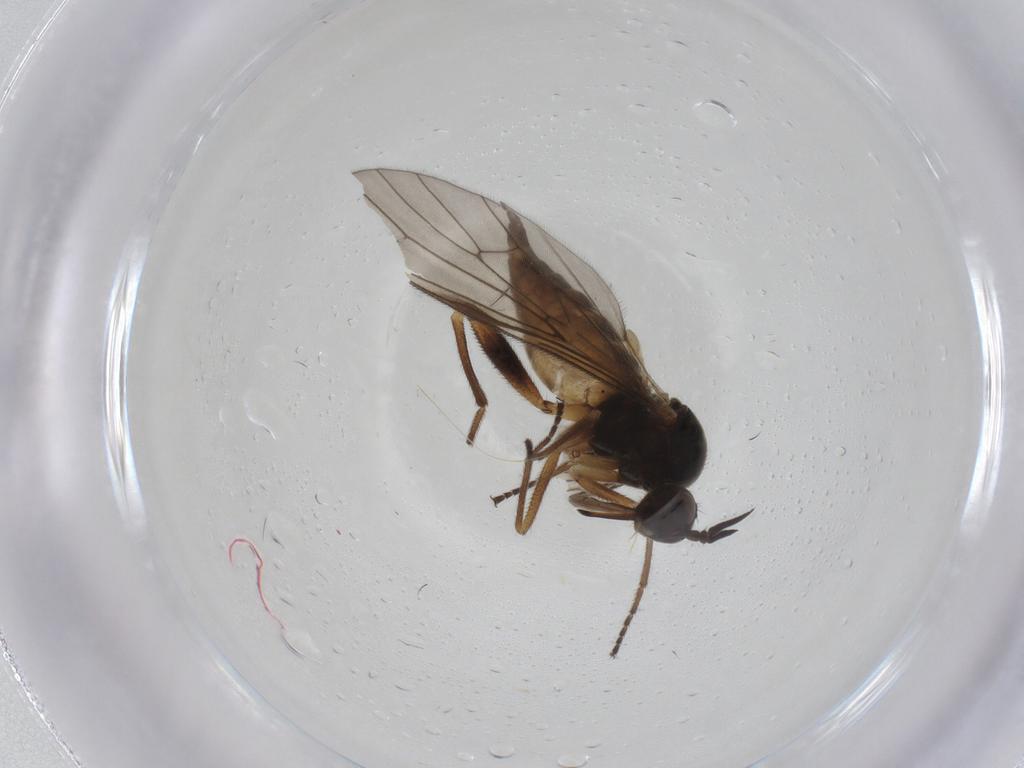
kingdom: Animalia
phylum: Arthropoda
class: Insecta
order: Diptera
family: Empididae
